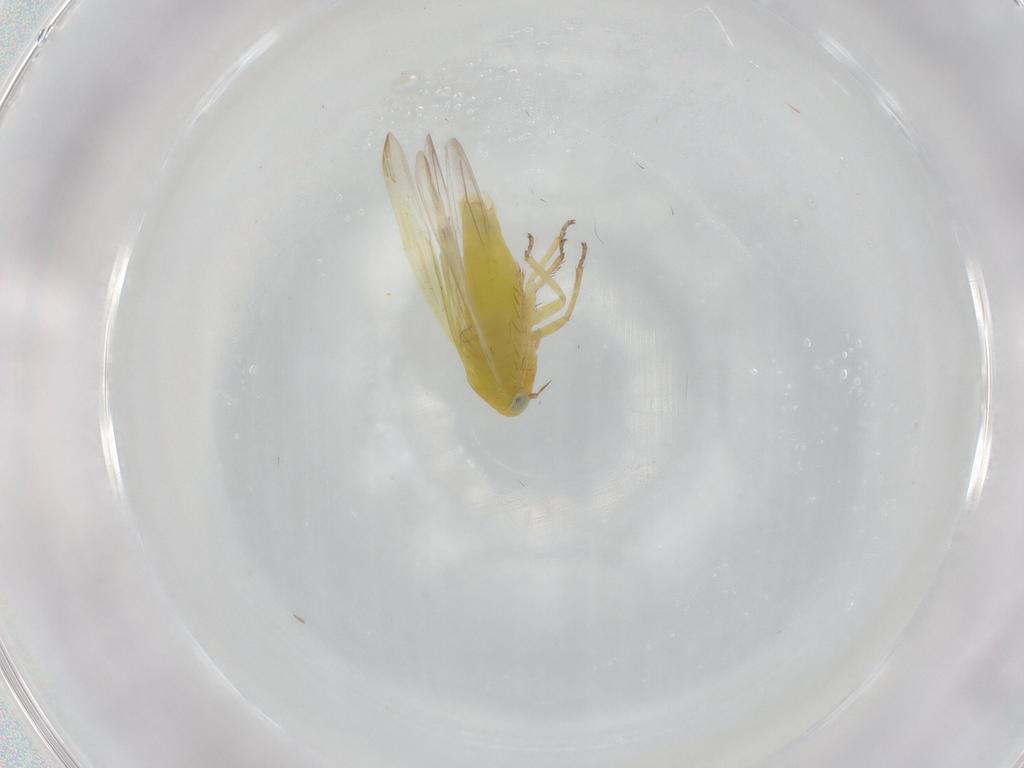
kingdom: Animalia
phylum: Arthropoda
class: Insecta
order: Hemiptera
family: Cicadellidae
